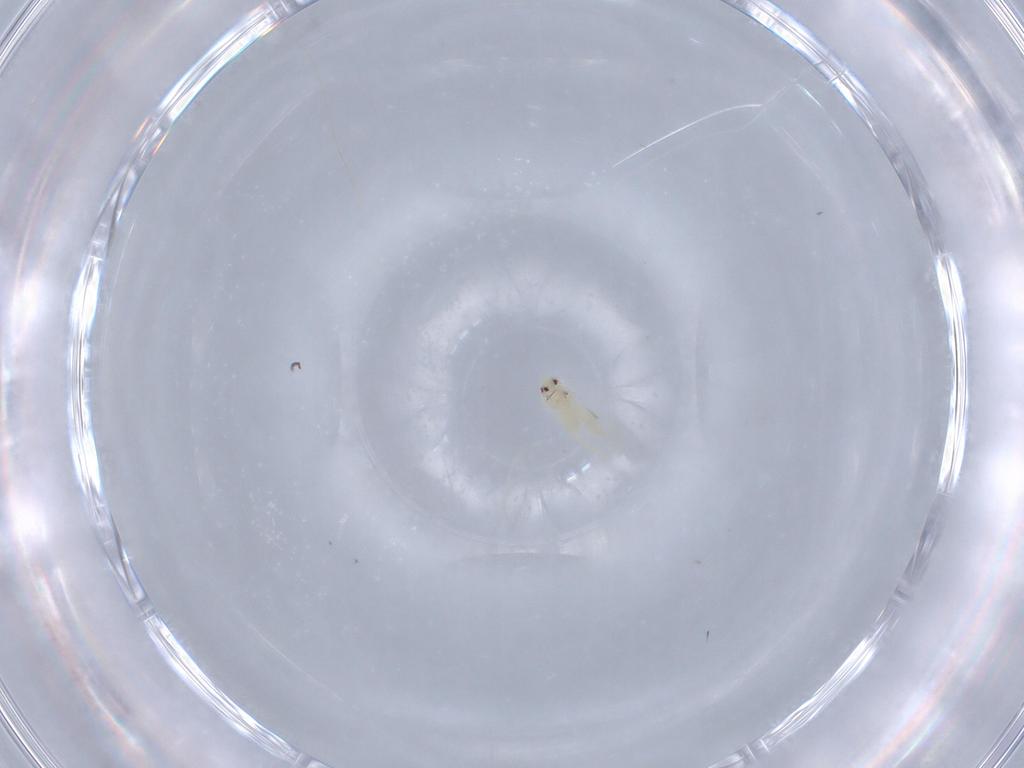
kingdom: Animalia
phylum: Arthropoda
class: Insecta
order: Hemiptera
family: Aleyrodidae
